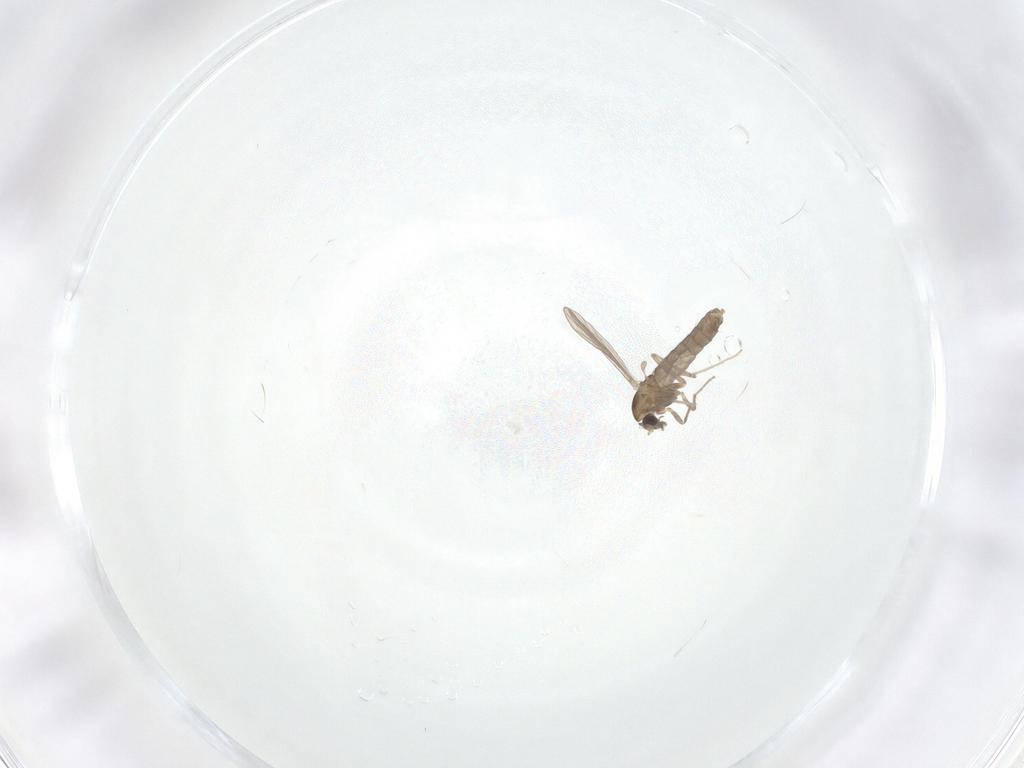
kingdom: Animalia
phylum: Arthropoda
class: Insecta
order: Diptera
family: Chironomidae
